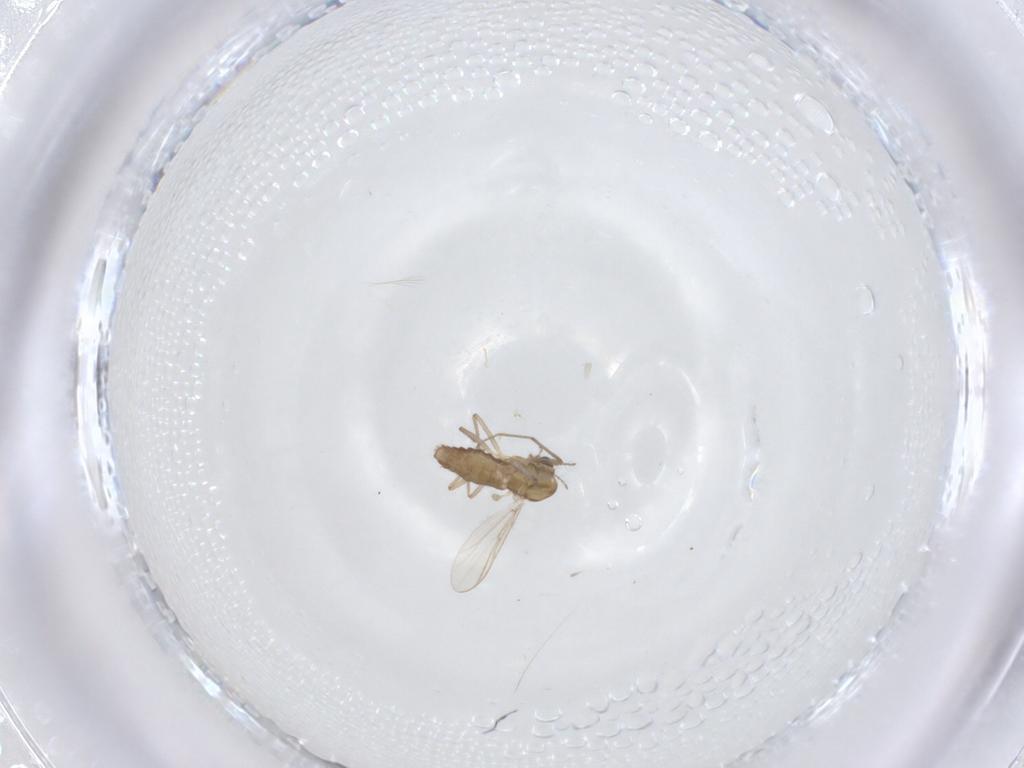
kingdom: Animalia
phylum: Arthropoda
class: Insecta
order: Diptera
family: Chironomidae
